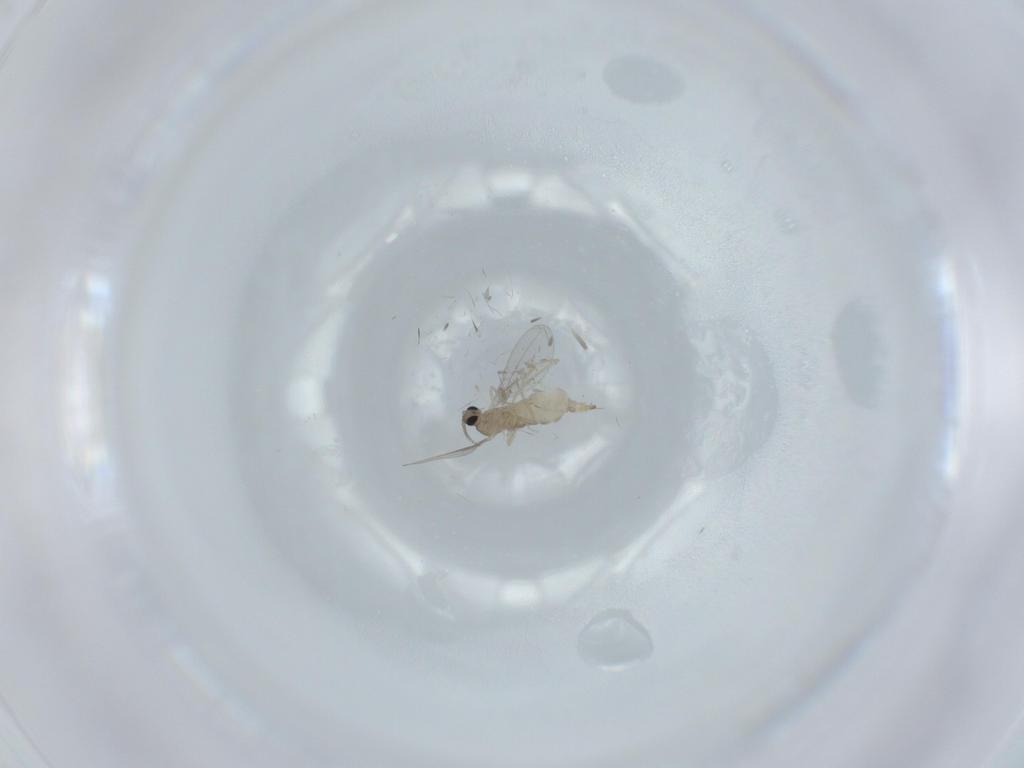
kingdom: Animalia
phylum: Arthropoda
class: Insecta
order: Diptera
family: Cecidomyiidae
